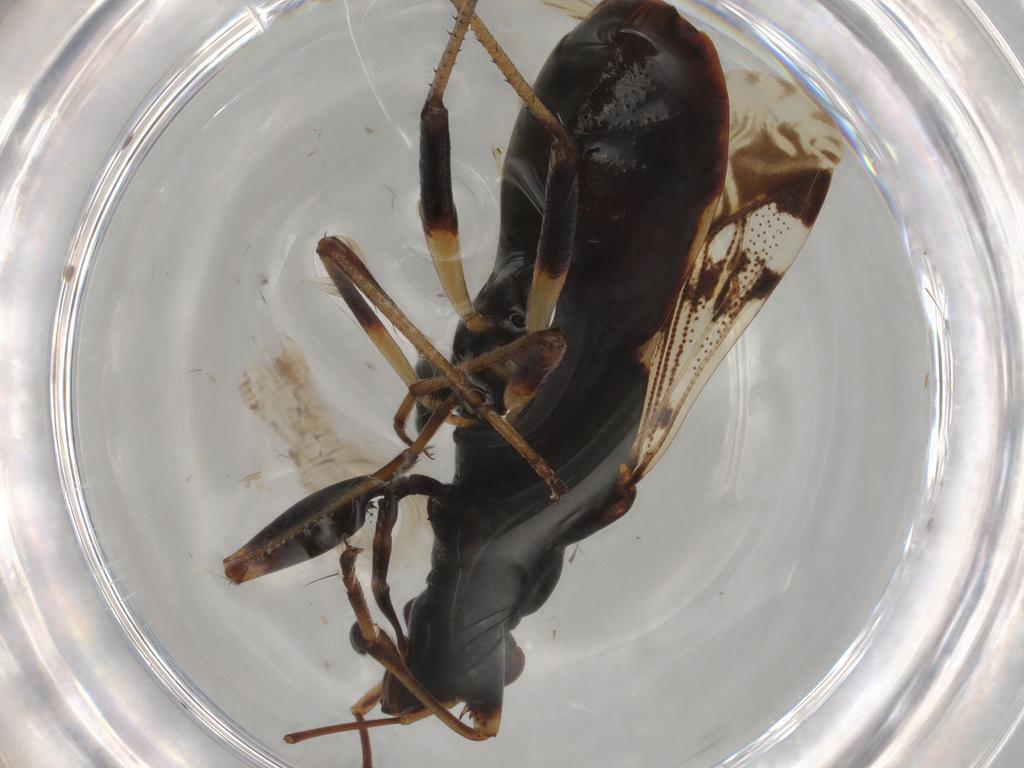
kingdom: Animalia
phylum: Arthropoda
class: Insecta
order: Hemiptera
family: Rhyparochromidae
